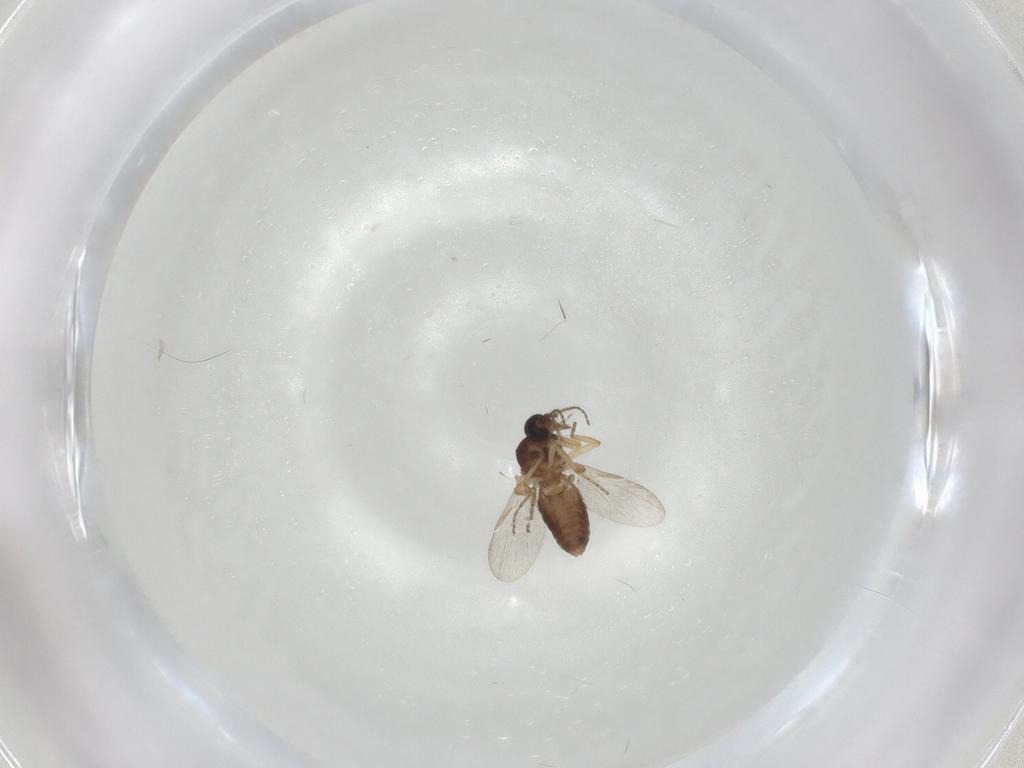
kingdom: Animalia
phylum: Arthropoda
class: Insecta
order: Diptera
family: Ceratopogonidae
